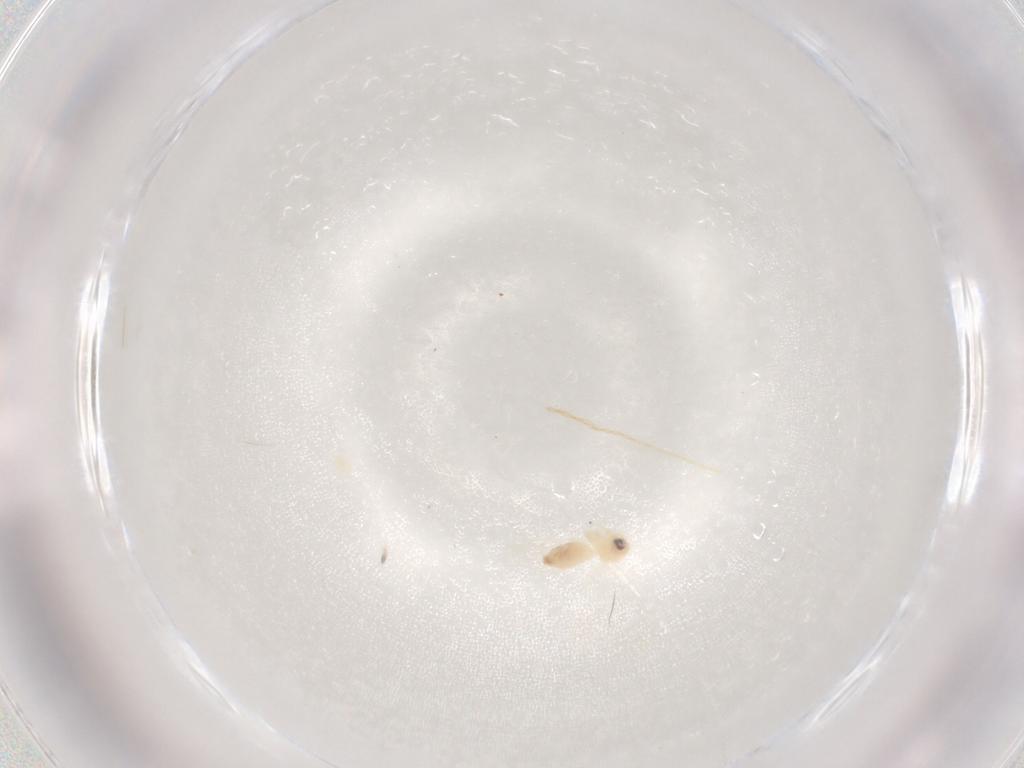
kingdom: Animalia
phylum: Arthropoda
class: Insecta
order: Hemiptera
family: Aleyrodidae
